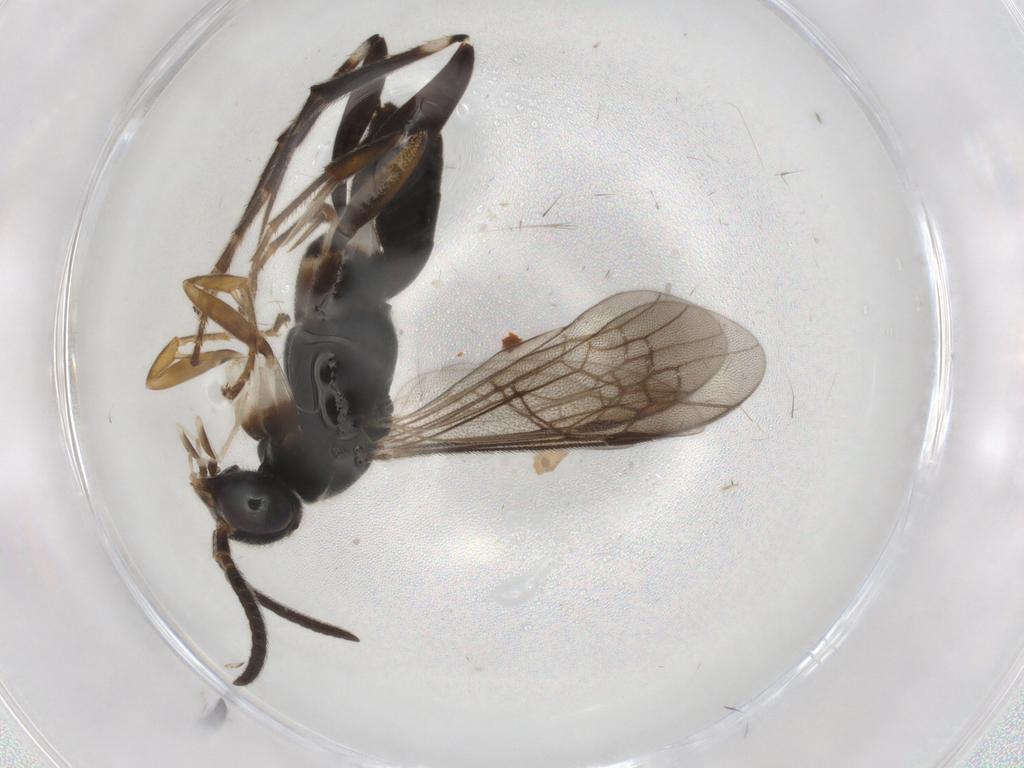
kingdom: Animalia
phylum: Arthropoda
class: Insecta
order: Hymenoptera
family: Pompilidae
